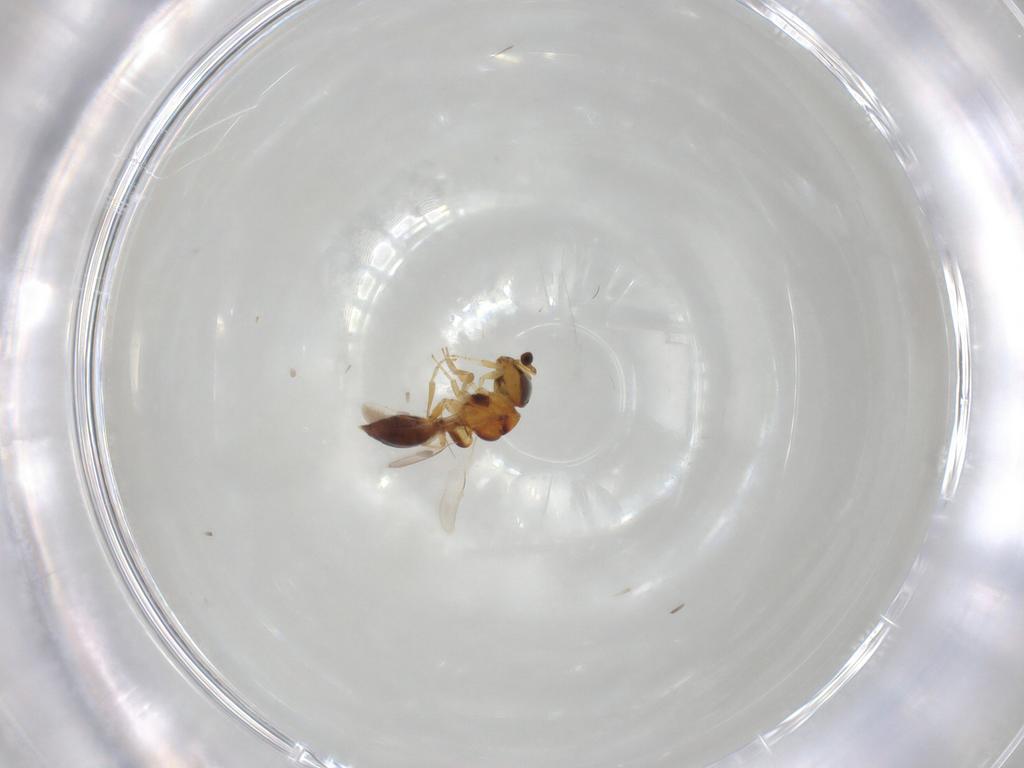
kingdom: Animalia
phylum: Arthropoda
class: Insecta
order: Hymenoptera
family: Scelionidae
